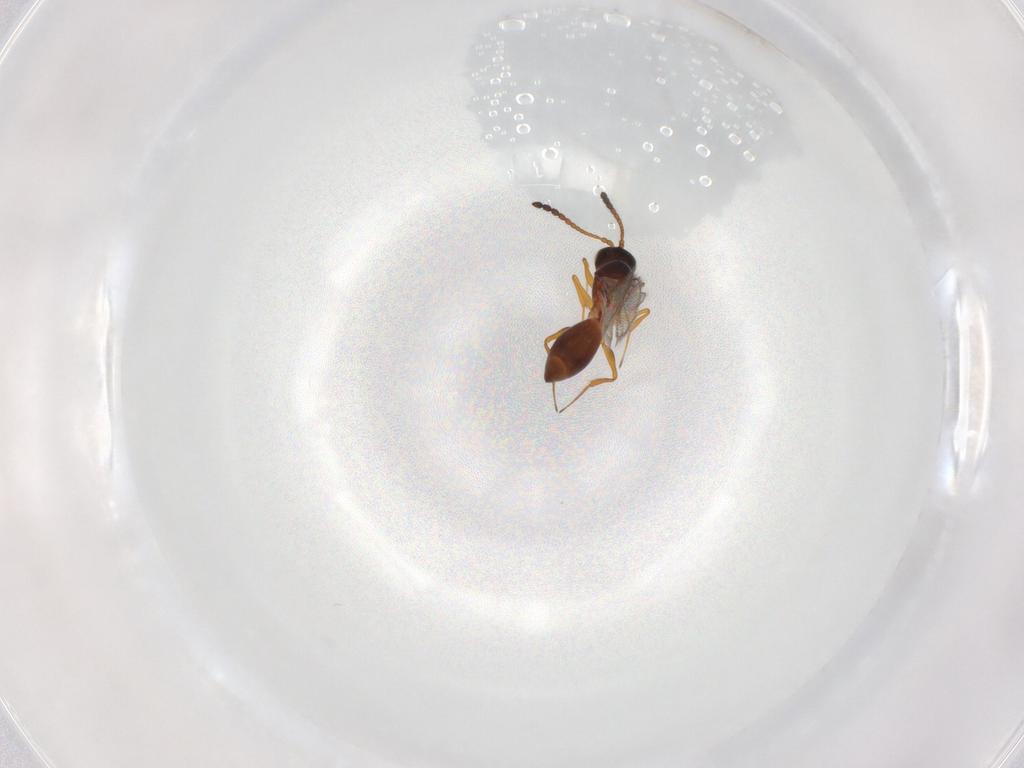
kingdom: Animalia
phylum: Arthropoda
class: Insecta
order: Hymenoptera
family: Figitidae
